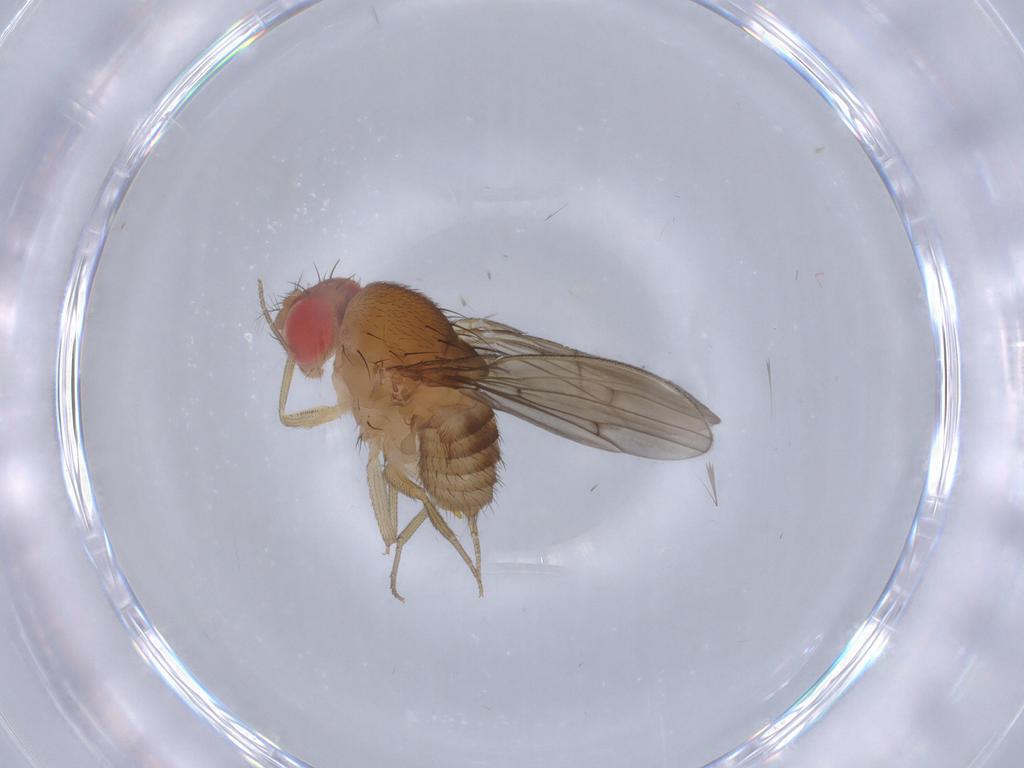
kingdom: Animalia
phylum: Arthropoda
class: Insecta
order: Diptera
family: Drosophilidae
